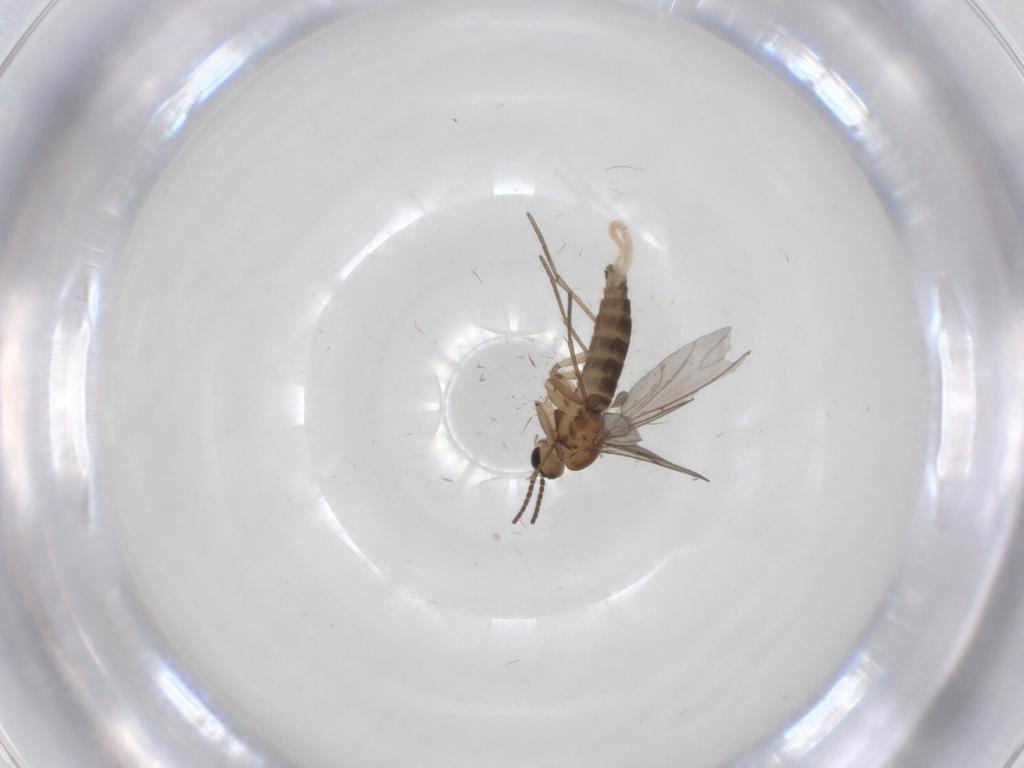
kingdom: Animalia
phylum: Arthropoda
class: Insecta
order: Diptera
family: Sciaridae
